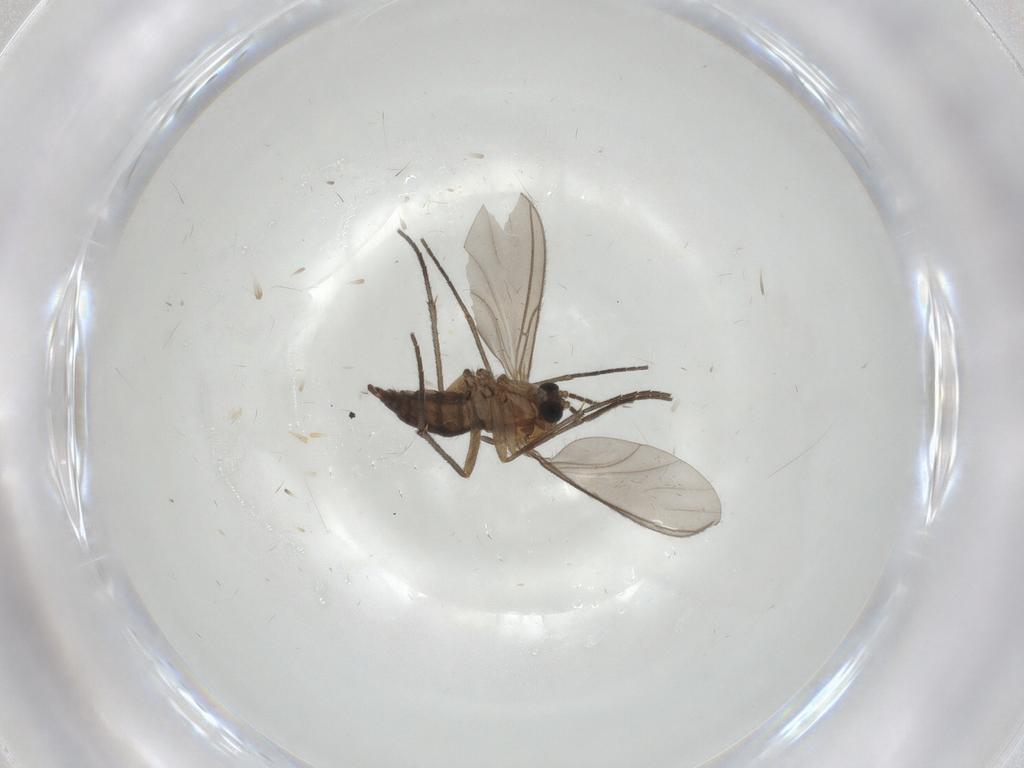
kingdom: Animalia
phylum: Arthropoda
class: Insecta
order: Diptera
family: Sciaridae
